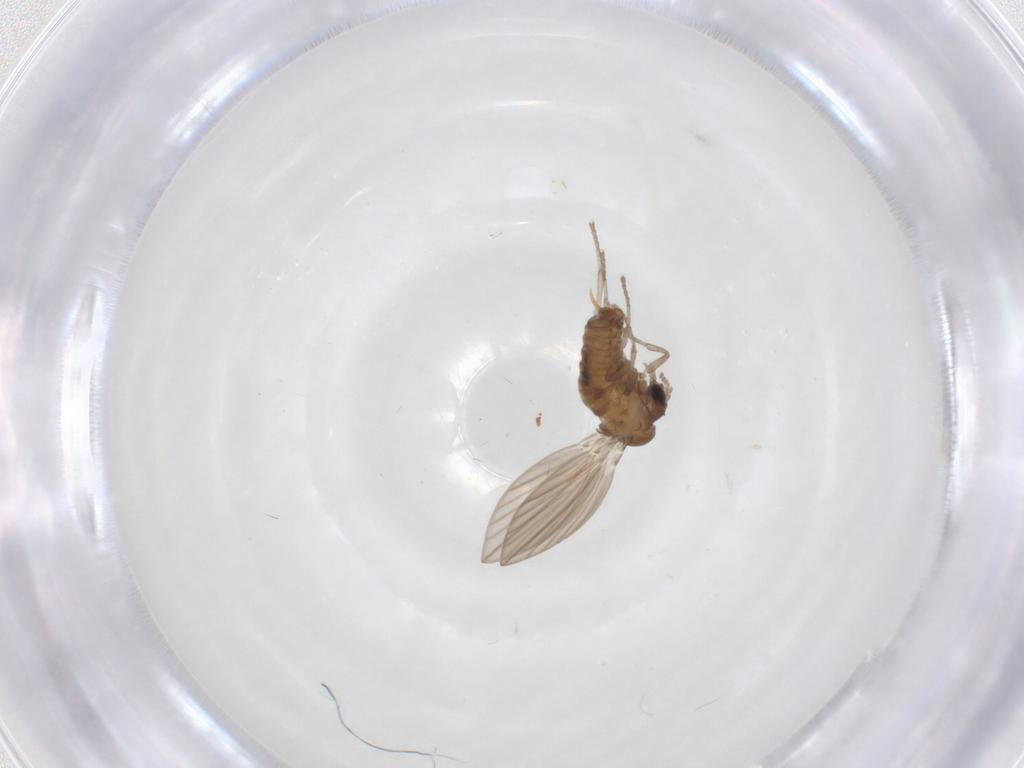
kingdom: Animalia
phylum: Arthropoda
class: Insecta
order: Diptera
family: Psychodidae
